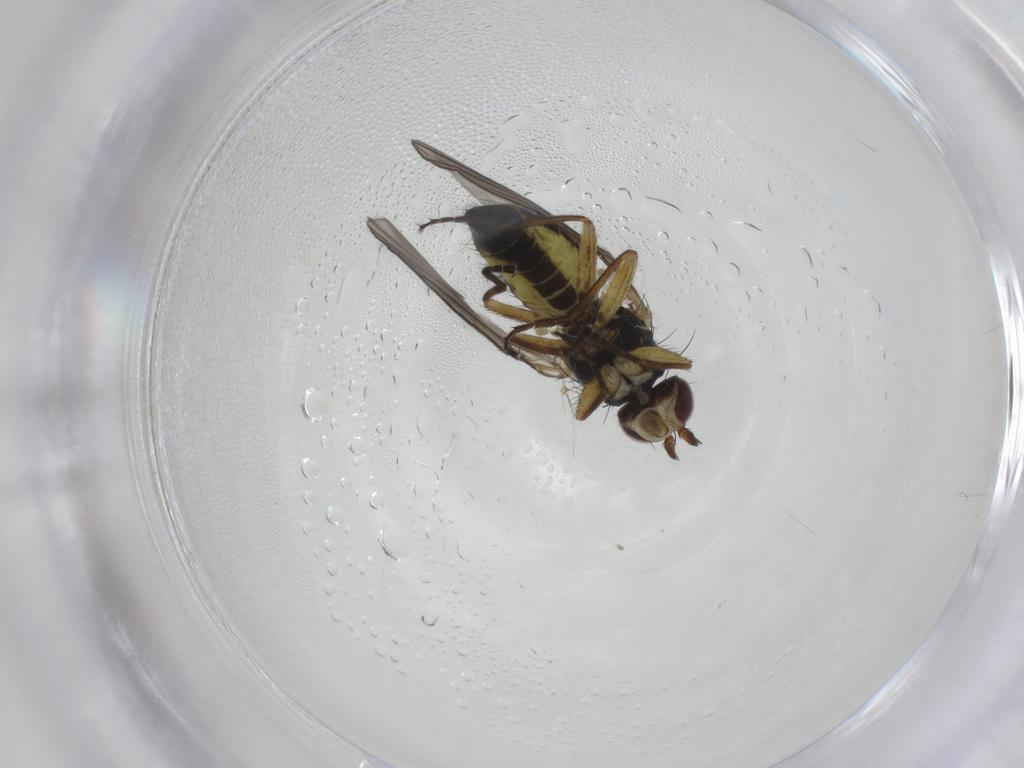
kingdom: Animalia
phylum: Arthropoda
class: Insecta
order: Diptera
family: Agromyzidae
